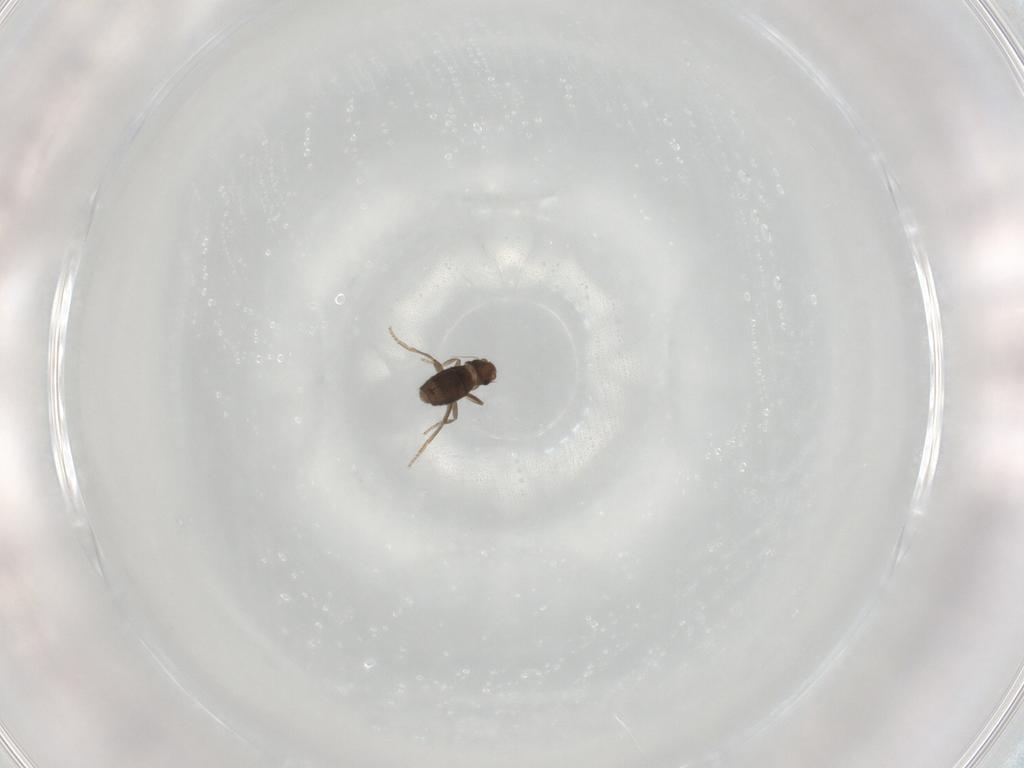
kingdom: Animalia
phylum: Arthropoda
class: Insecta
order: Diptera
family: Phoridae
